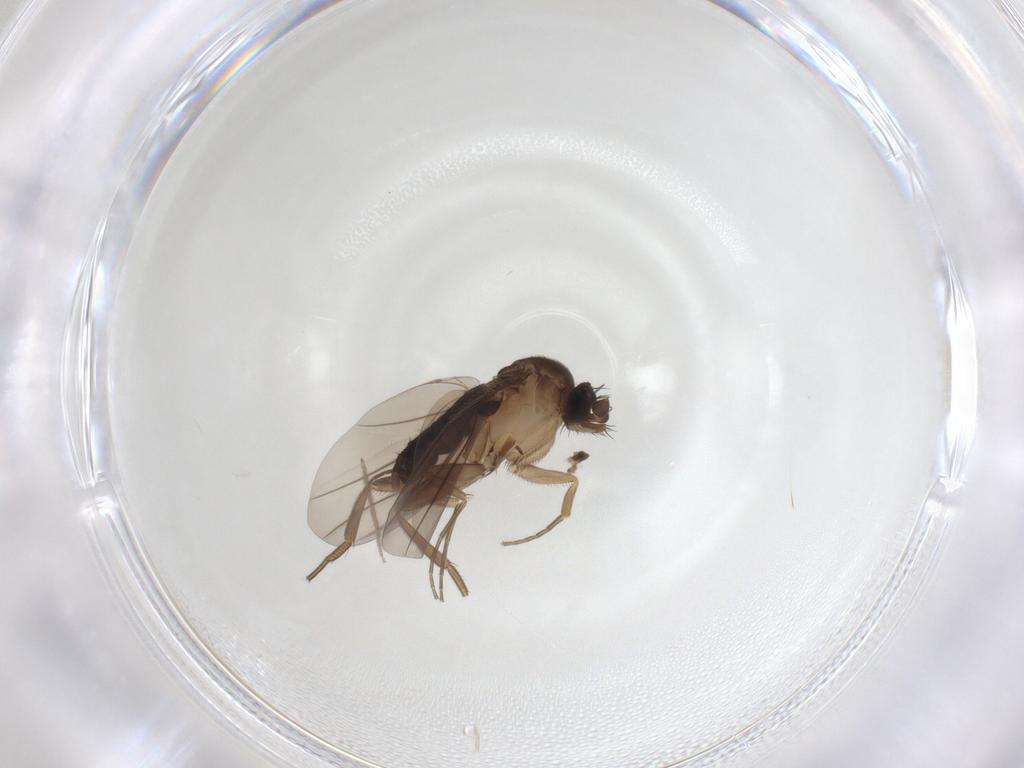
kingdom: Animalia
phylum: Arthropoda
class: Insecta
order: Diptera
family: Chironomidae
